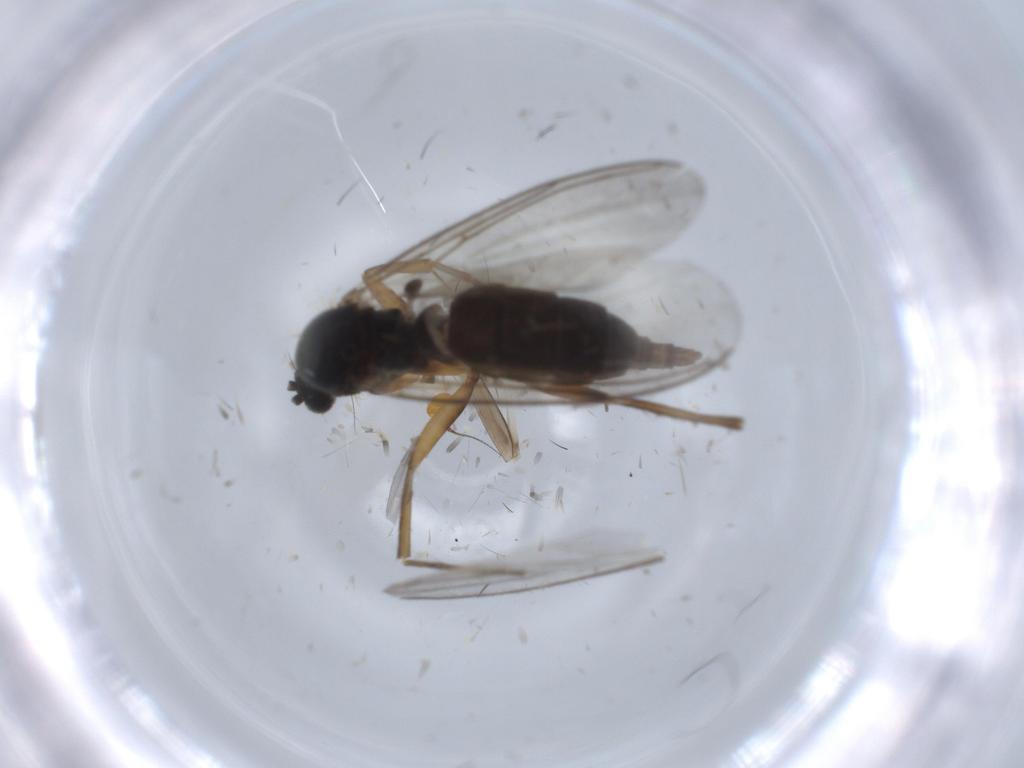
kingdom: Animalia
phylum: Arthropoda
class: Insecta
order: Diptera
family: Mycetophilidae
